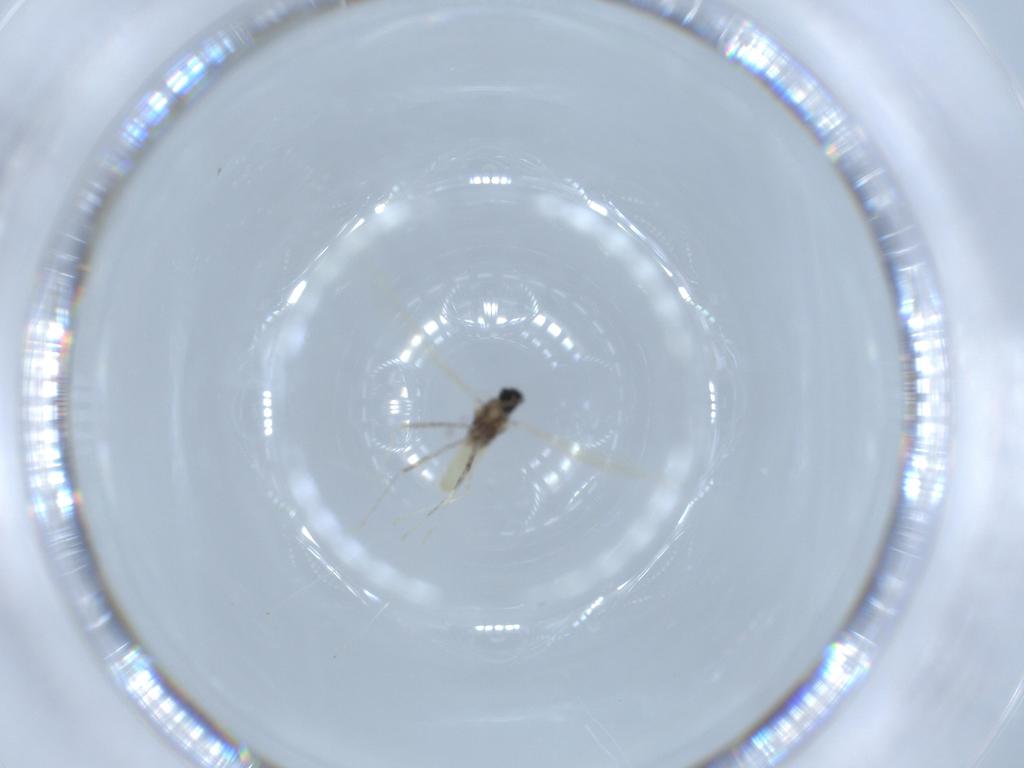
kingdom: Animalia
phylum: Arthropoda
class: Insecta
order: Diptera
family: Cecidomyiidae
